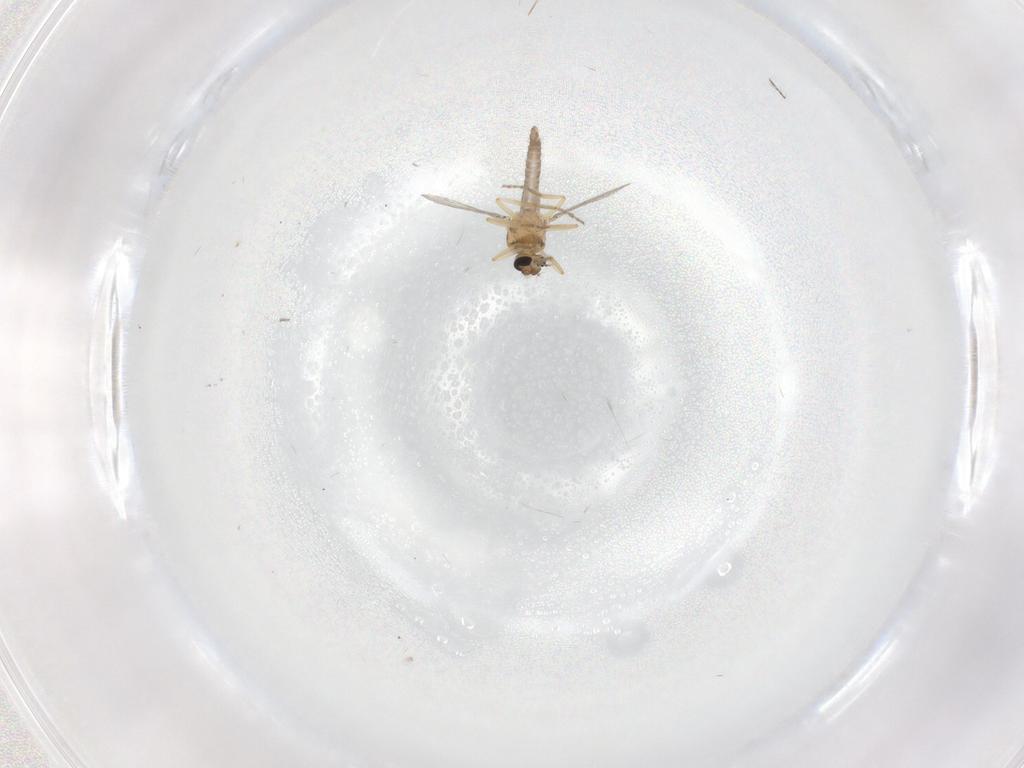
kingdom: Animalia
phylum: Arthropoda
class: Insecta
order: Diptera
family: Ceratopogonidae
